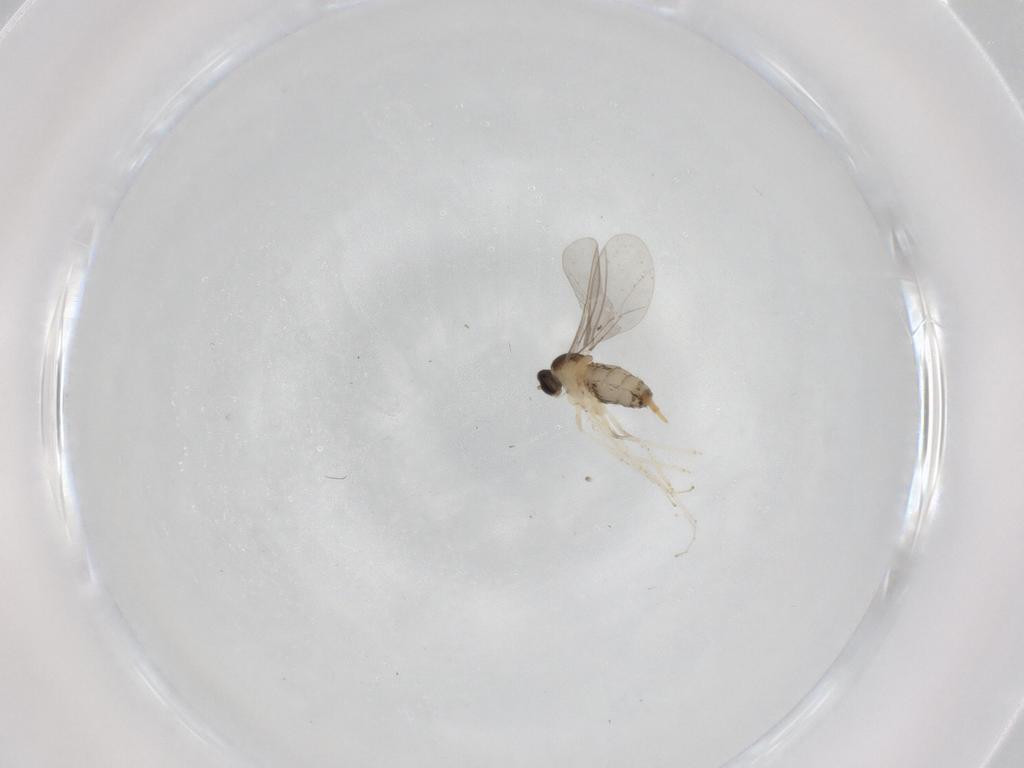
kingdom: Animalia
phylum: Arthropoda
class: Insecta
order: Diptera
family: Cecidomyiidae
